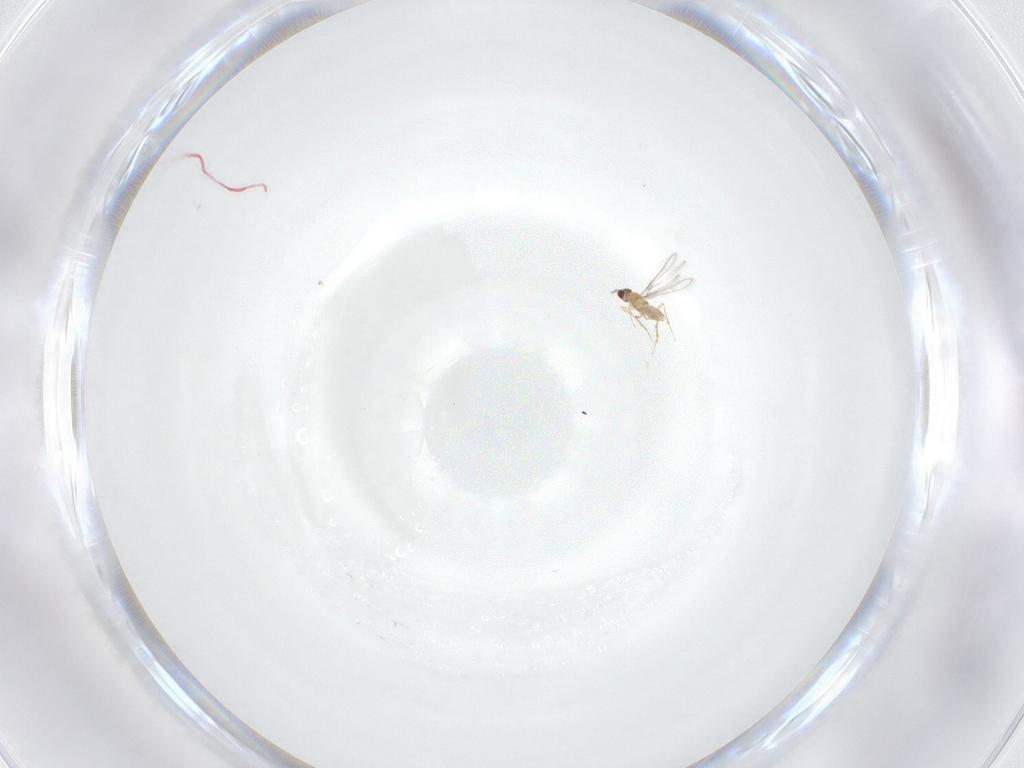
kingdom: Animalia
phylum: Arthropoda
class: Insecta
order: Hymenoptera
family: Mymaridae
